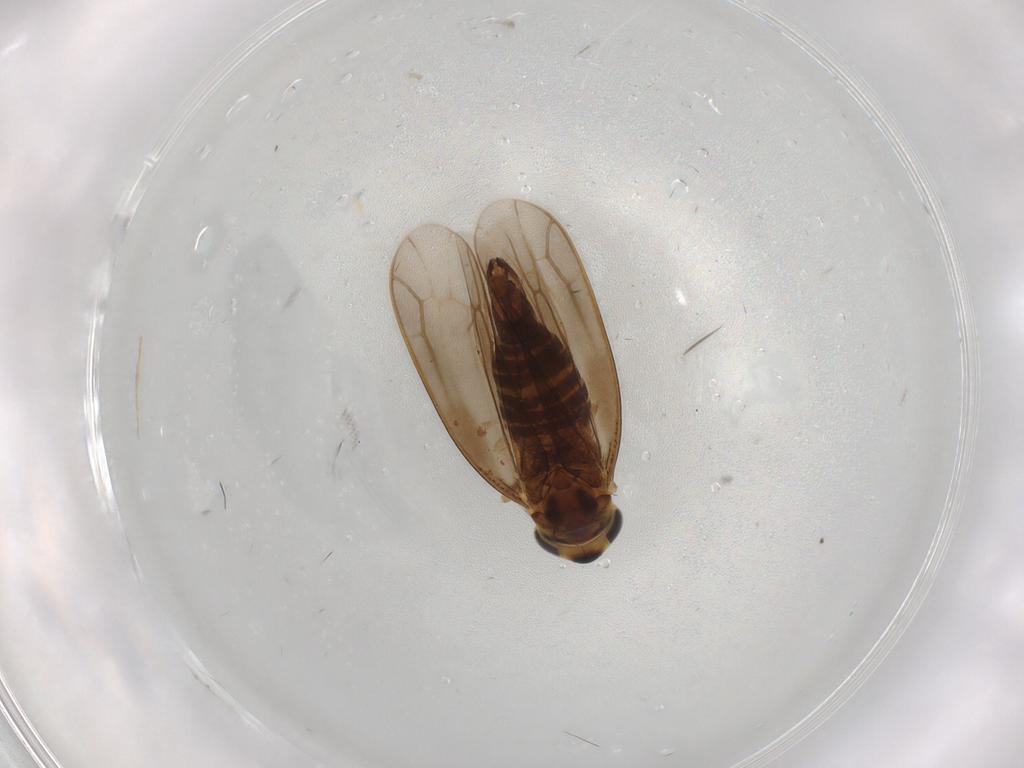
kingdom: Animalia
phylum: Arthropoda
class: Insecta
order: Hemiptera
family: Cicadellidae
